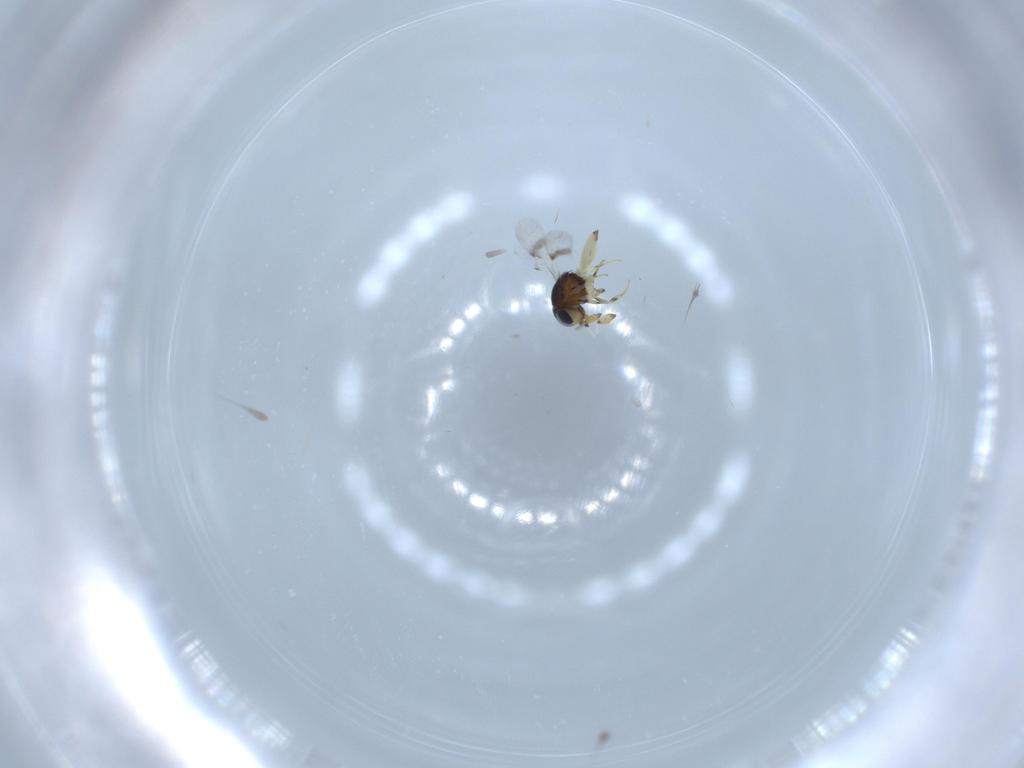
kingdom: Animalia
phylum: Arthropoda
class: Insecta
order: Hymenoptera
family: Scelionidae
